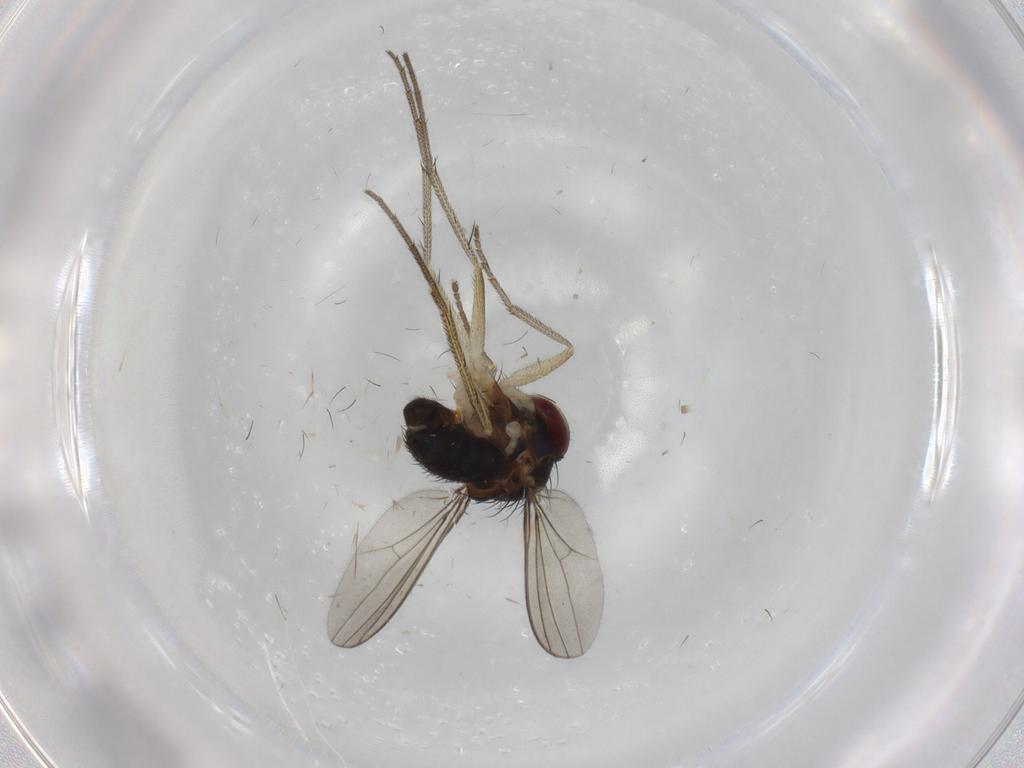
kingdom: Animalia
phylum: Arthropoda
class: Insecta
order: Diptera
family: Dolichopodidae
